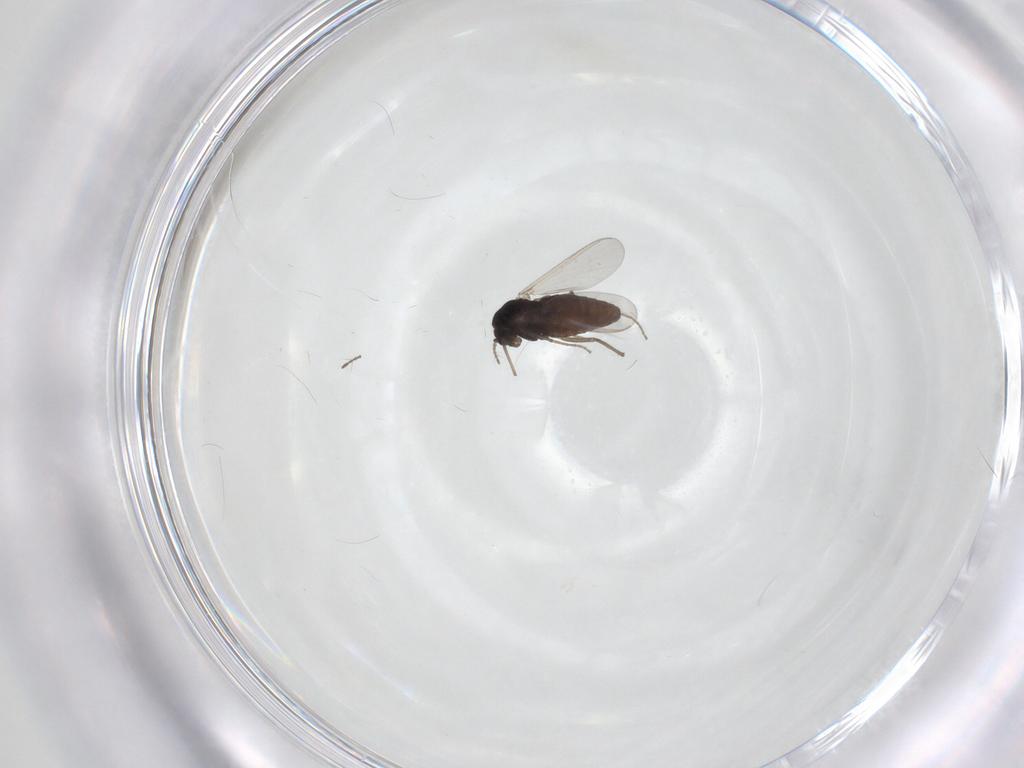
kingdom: Animalia
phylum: Arthropoda
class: Insecta
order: Diptera
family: Chironomidae
